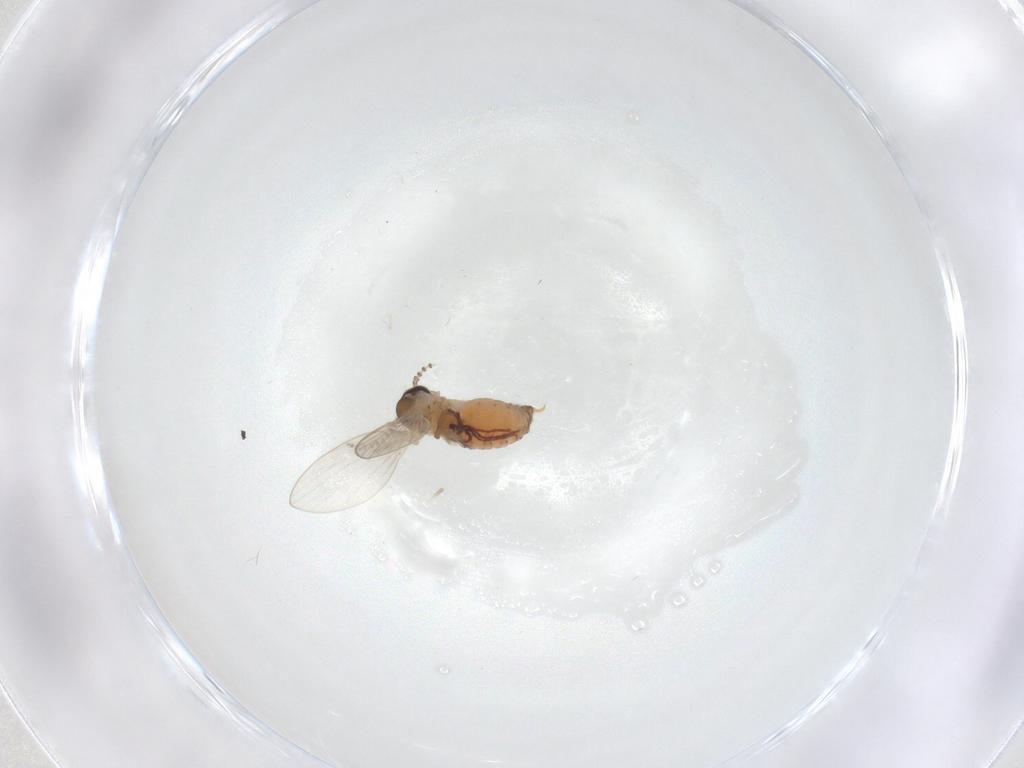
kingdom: Animalia
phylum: Arthropoda
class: Insecta
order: Diptera
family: Psychodidae
